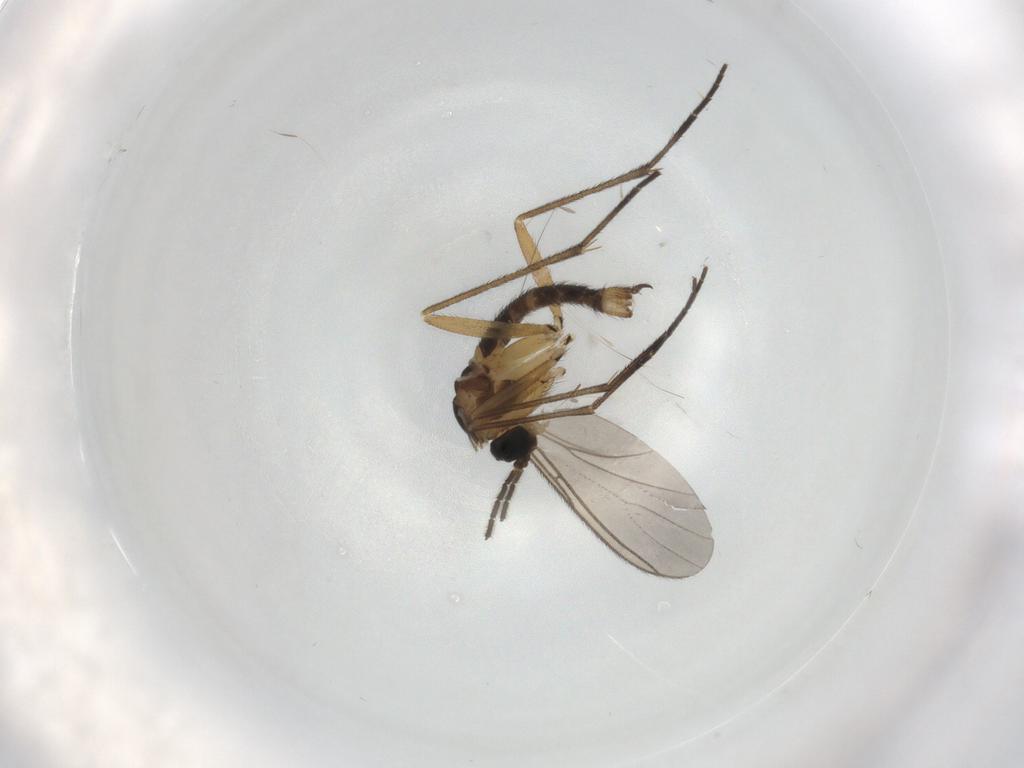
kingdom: Animalia
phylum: Arthropoda
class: Insecta
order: Diptera
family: Sciaridae
